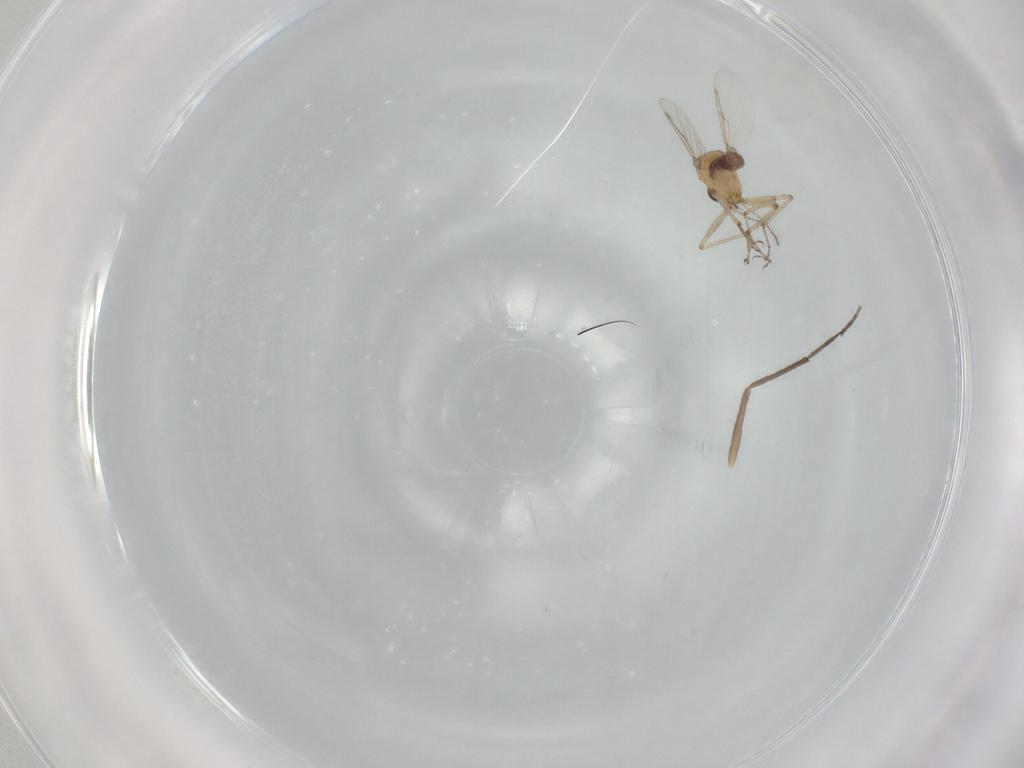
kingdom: Animalia
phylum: Arthropoda
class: Insecta
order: Diptera
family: Ceratopogonidae
